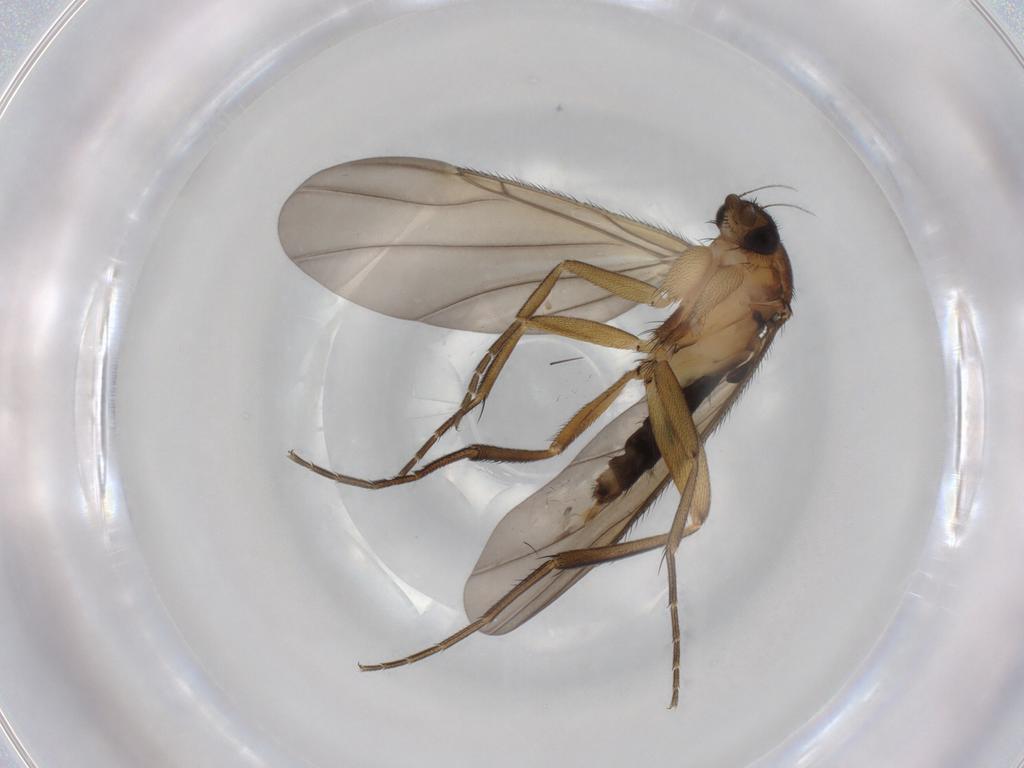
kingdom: Animalia
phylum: Arthropoda
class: Insecta
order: Diptera
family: Phoridae
